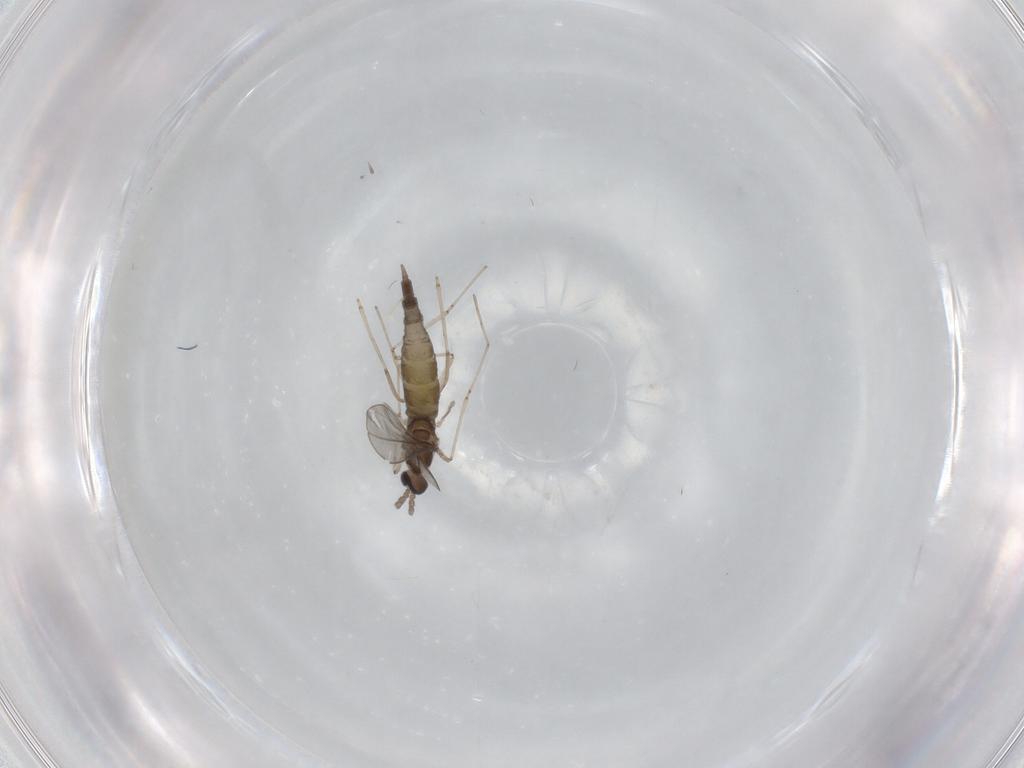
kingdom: Animalia
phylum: Arthropoda
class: Insecta
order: Diptera
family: Cecidomyiidae
